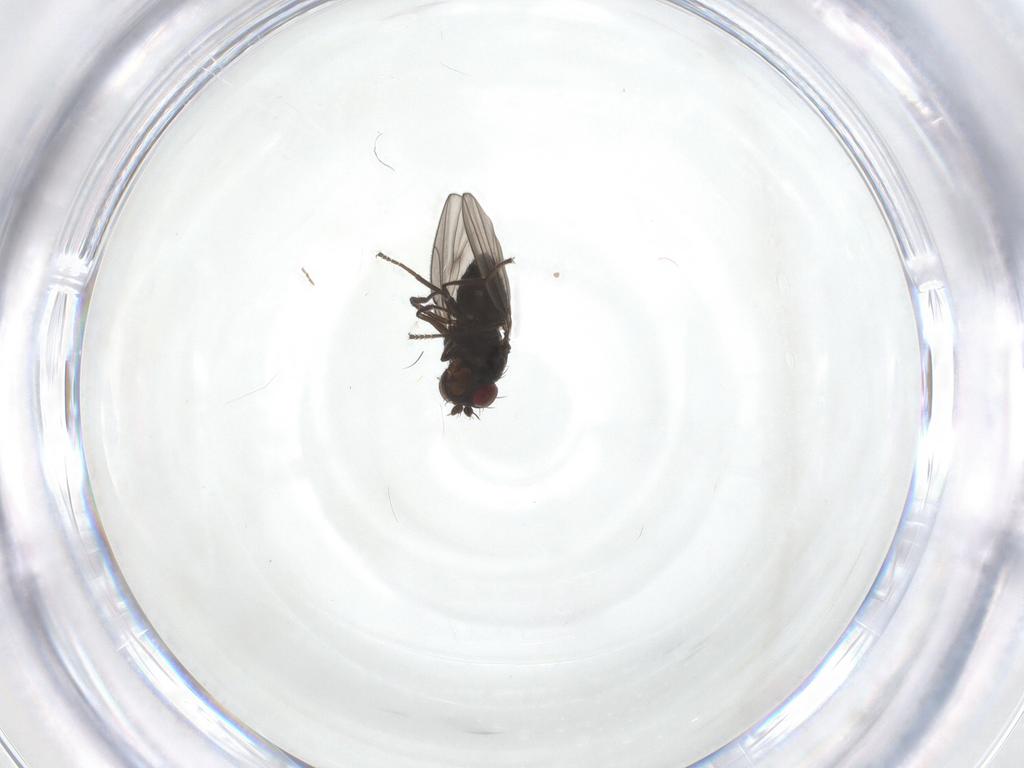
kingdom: Animalia
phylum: Arthropoda
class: Insecta
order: Diptera
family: Ephydridae
